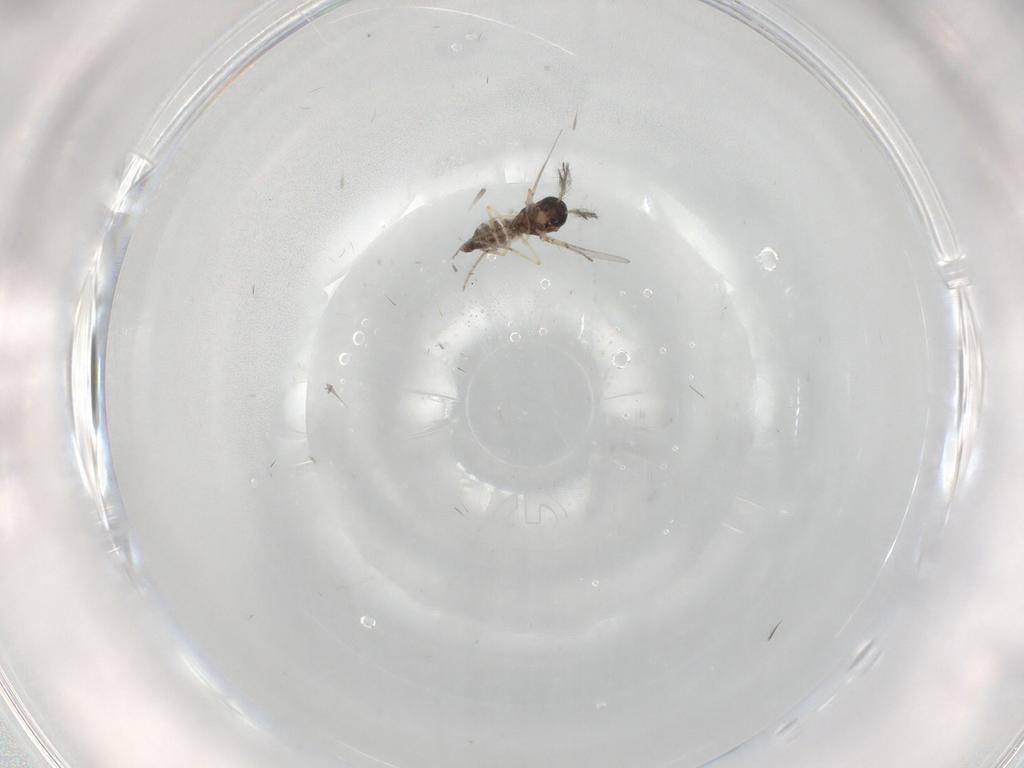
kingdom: Animalia
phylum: Arthropoda
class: Insecta
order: Diptera
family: Ceratopogonidae
